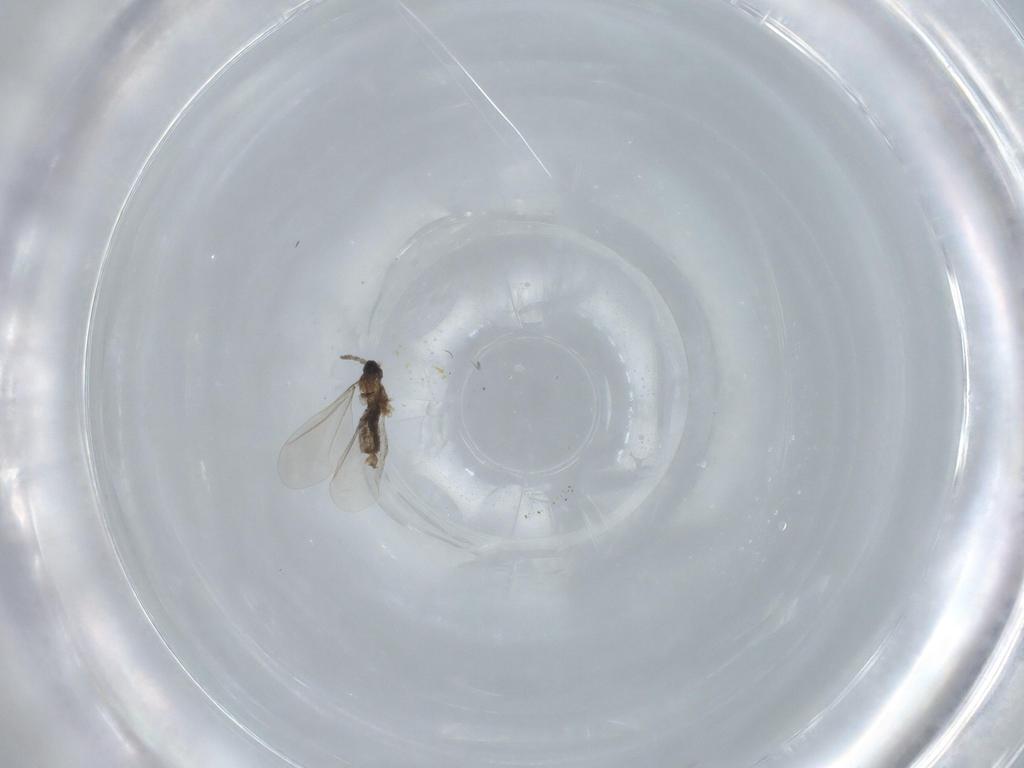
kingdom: Animalia
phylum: Arthropoda
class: Insecta
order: Diptera
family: Cecidomyiidae
